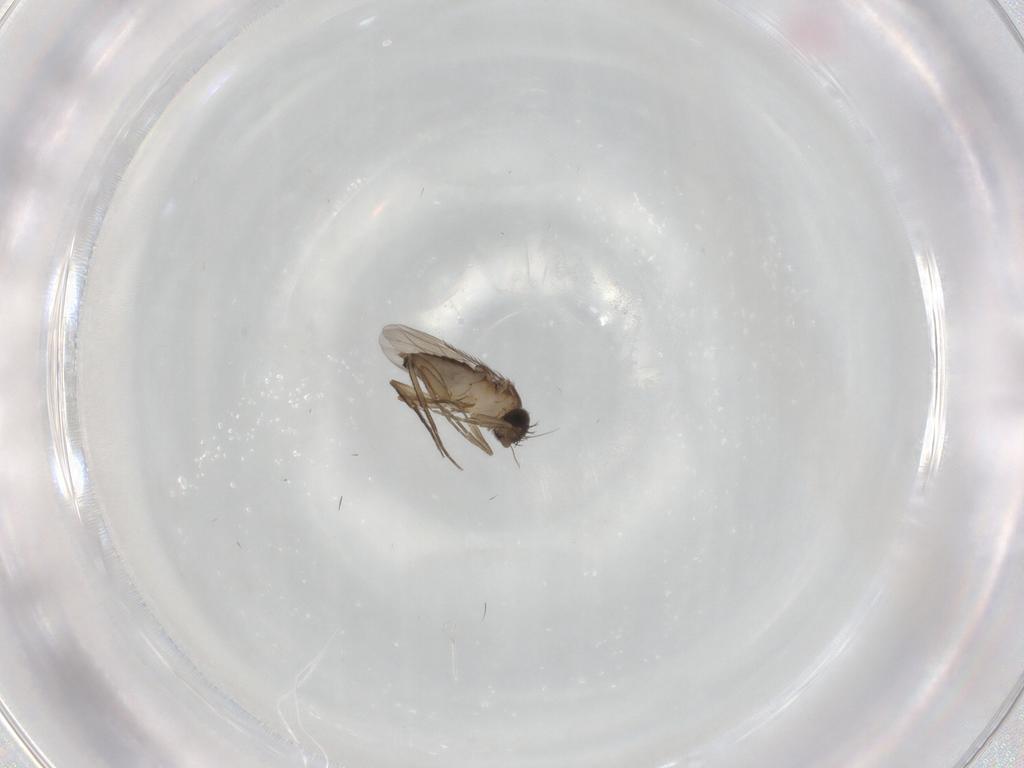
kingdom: Animalia
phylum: Arthropoda
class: Insecta
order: Diptera
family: Phoridae
